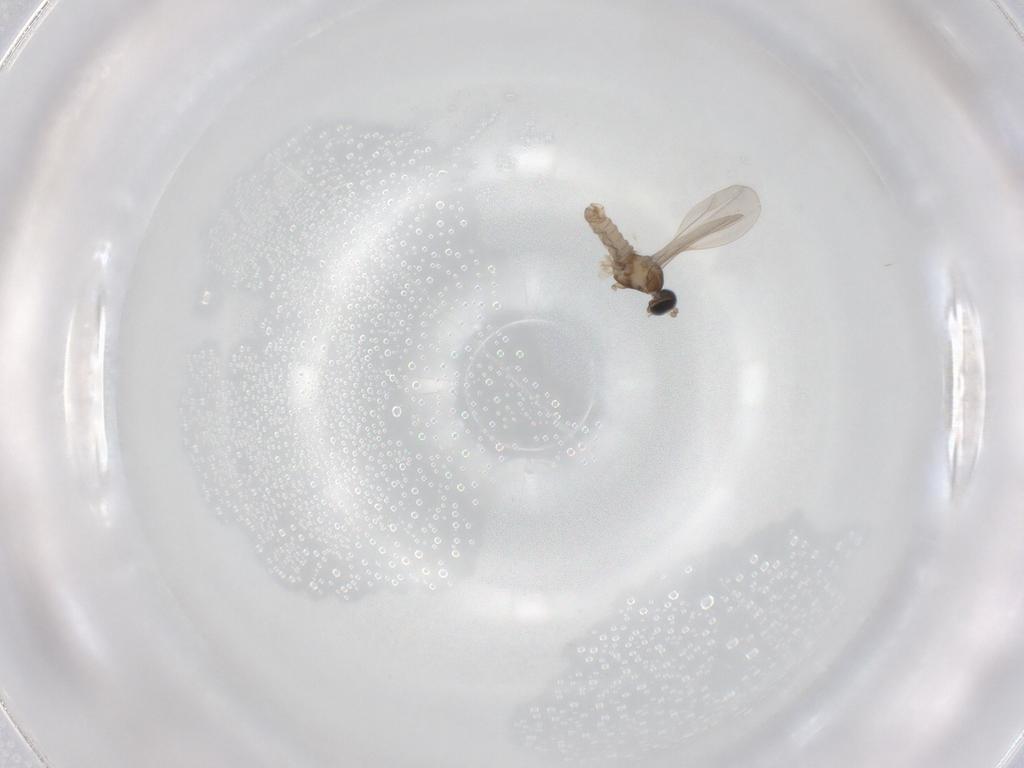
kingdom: Animalia
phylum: Arthropoda
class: Insecta
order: Diptera
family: Cecidomyiidae
